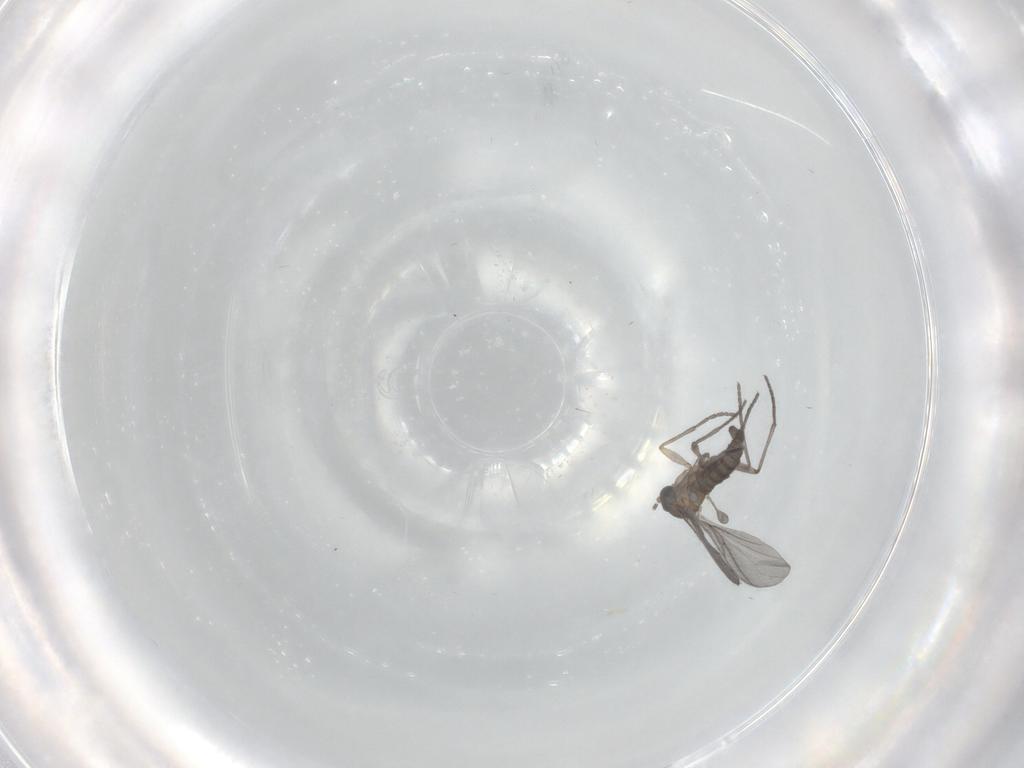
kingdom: Animalia
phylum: Arthropoda
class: Insecta
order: Diptera
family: Sciaridae
